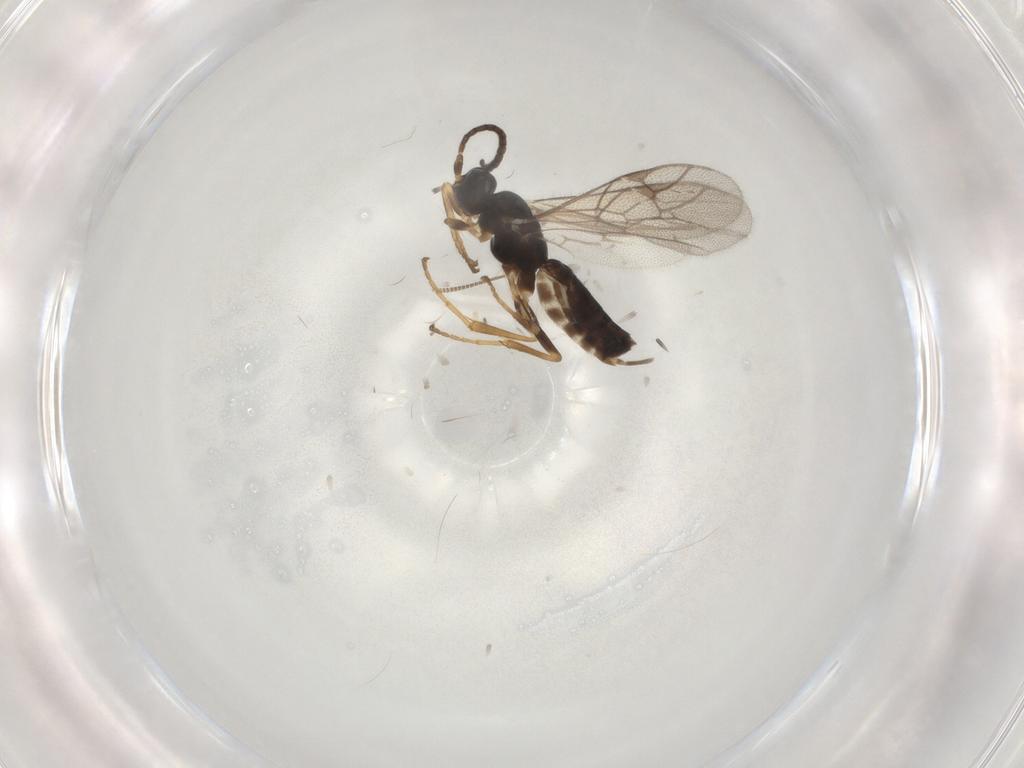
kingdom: Animalia
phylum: Arthropoda
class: Insecta
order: Hymenoptera
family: Ichneumonidae
